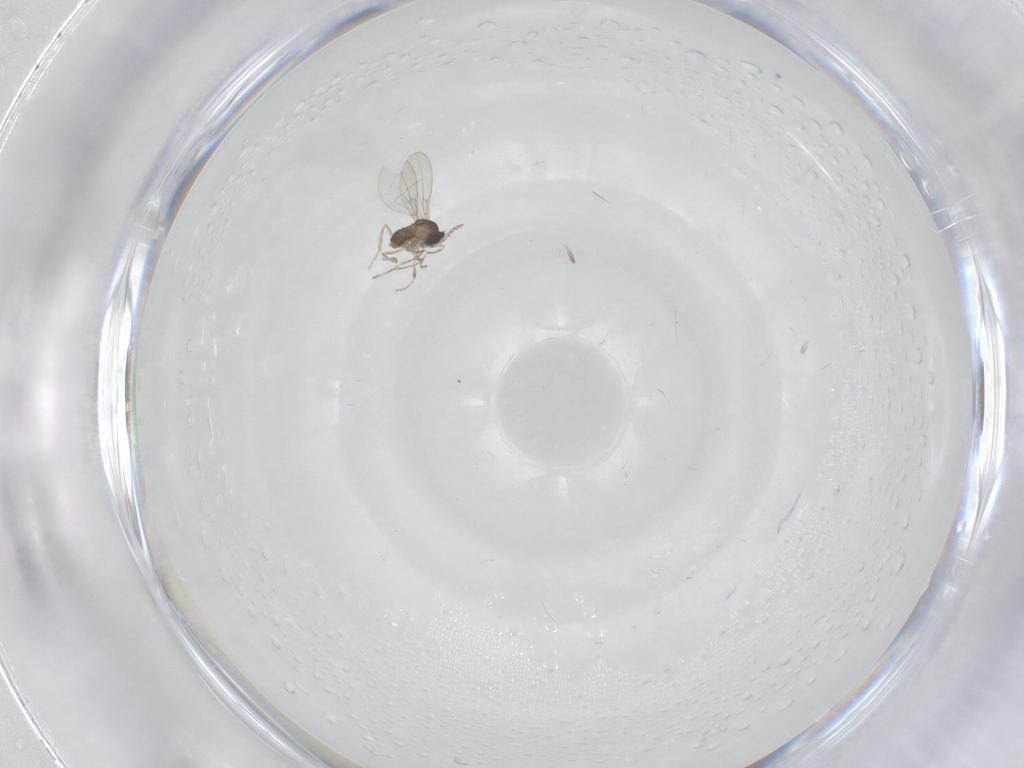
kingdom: Animalia
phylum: Arthropoda
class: Insecta
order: Diptera
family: Cecidomyiidae
